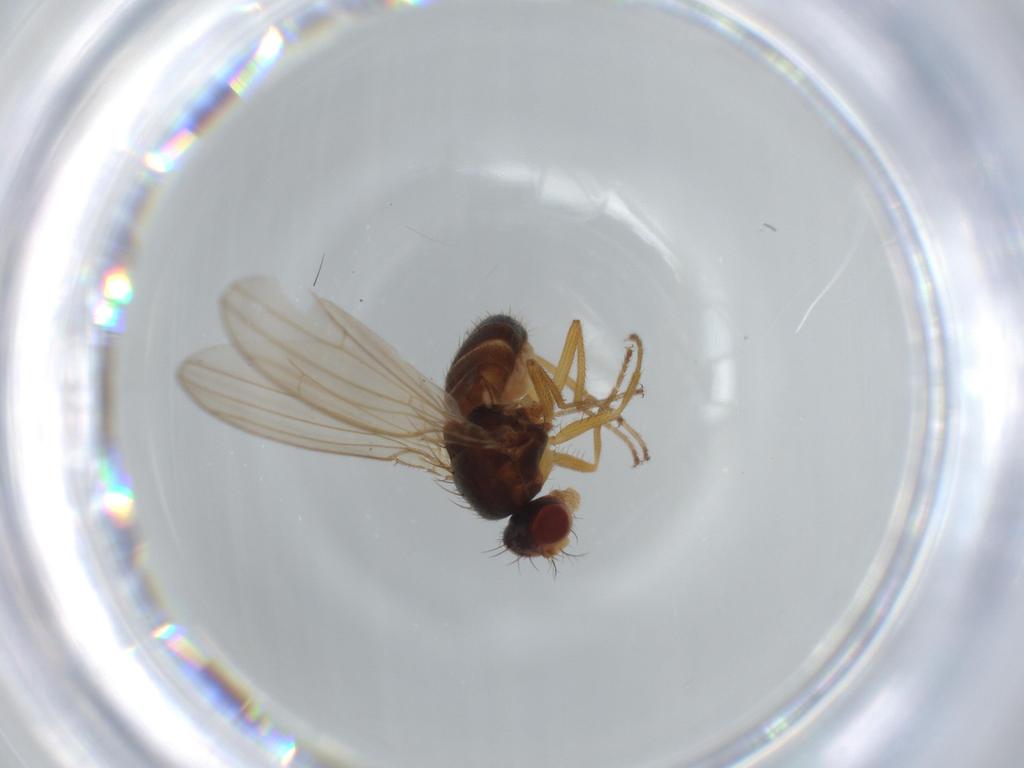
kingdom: Animalia
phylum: Arthropoda
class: Insecta
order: Diptera
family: Drosophilidae
